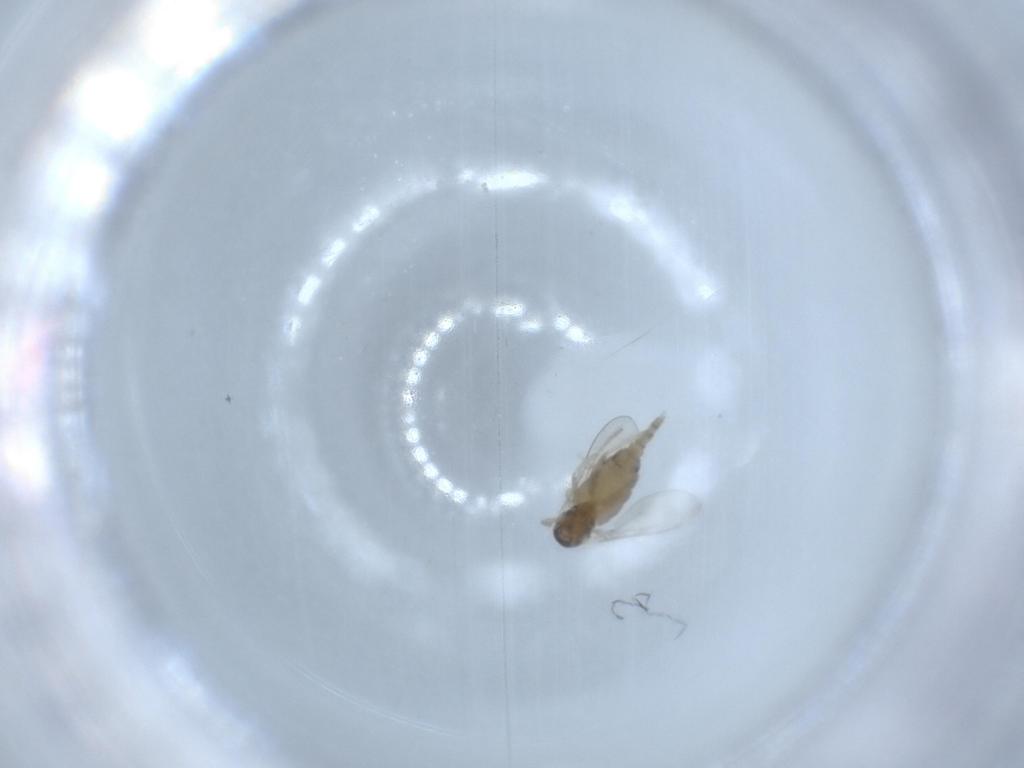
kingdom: Animalia
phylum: Arthropoda
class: Insecta
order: Diptera
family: Cecidomyiidae
